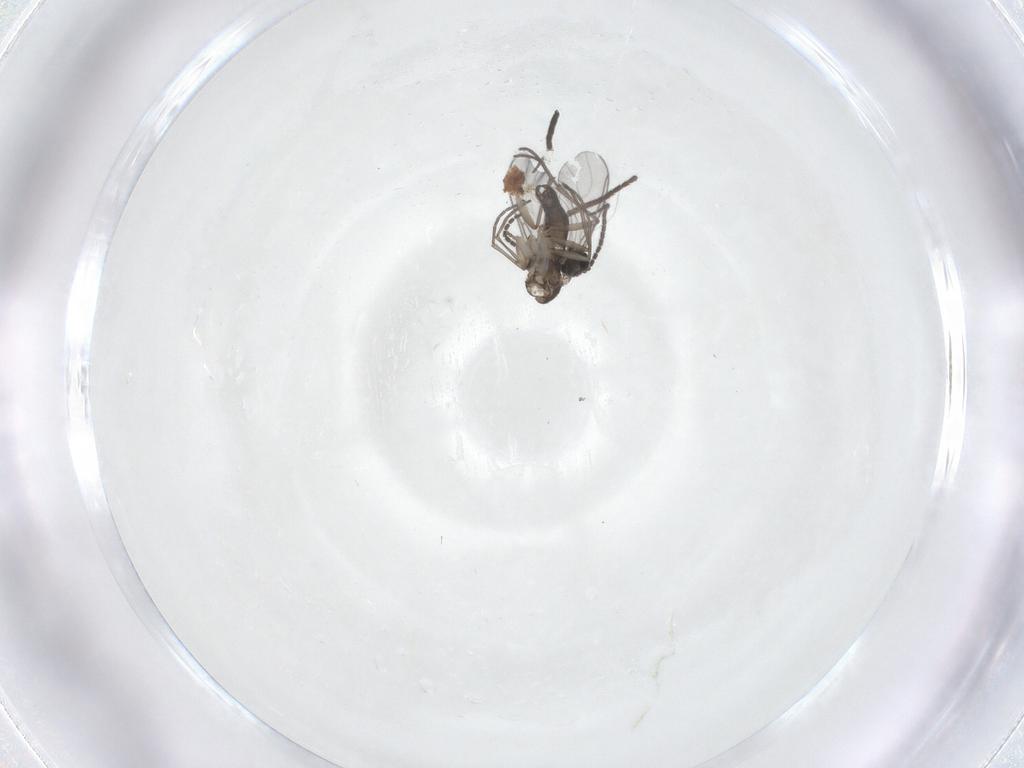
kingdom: Animalia
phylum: Arthropoda
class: Insecta
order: Diptera
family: Sciaridae
